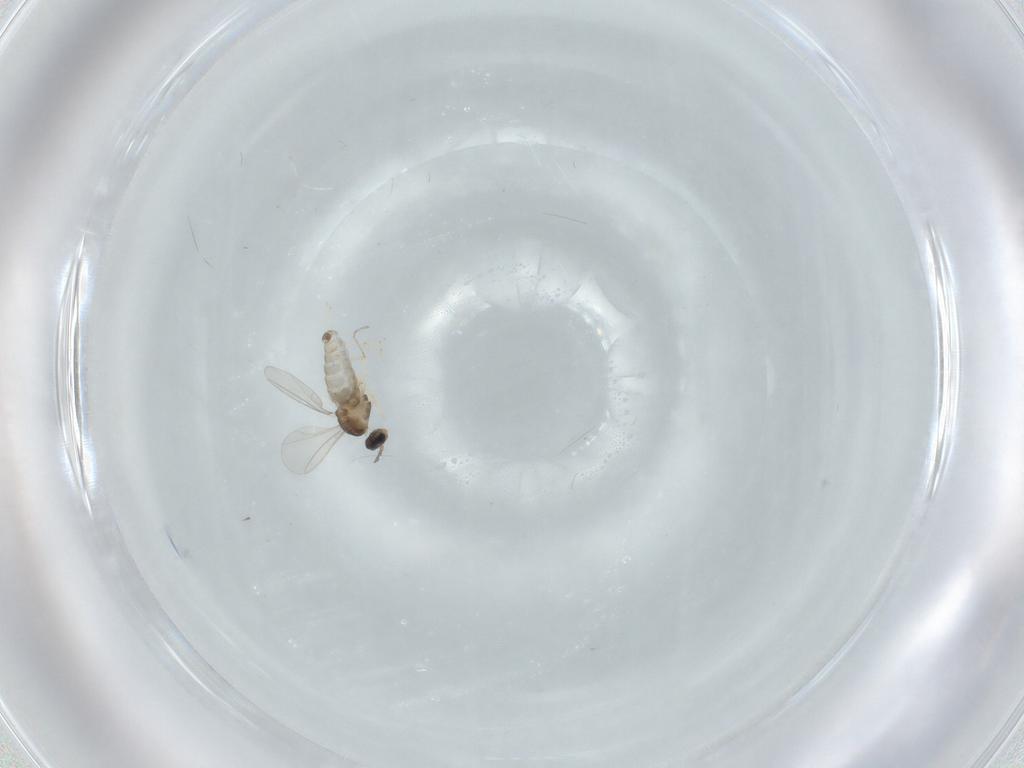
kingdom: Animalia
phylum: Arthropoda
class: Insecta
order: Diptera
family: Cecidomyiidae
